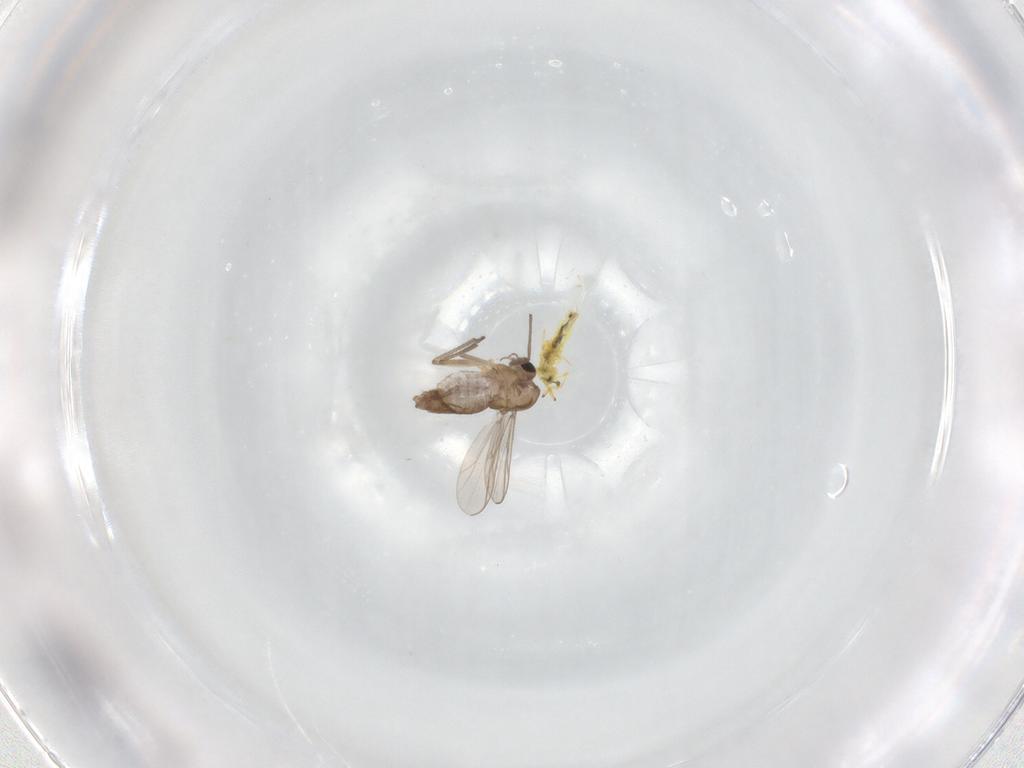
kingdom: Animalia
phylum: Arthropoda
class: Insecta
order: Diptera
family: Chironomidae
